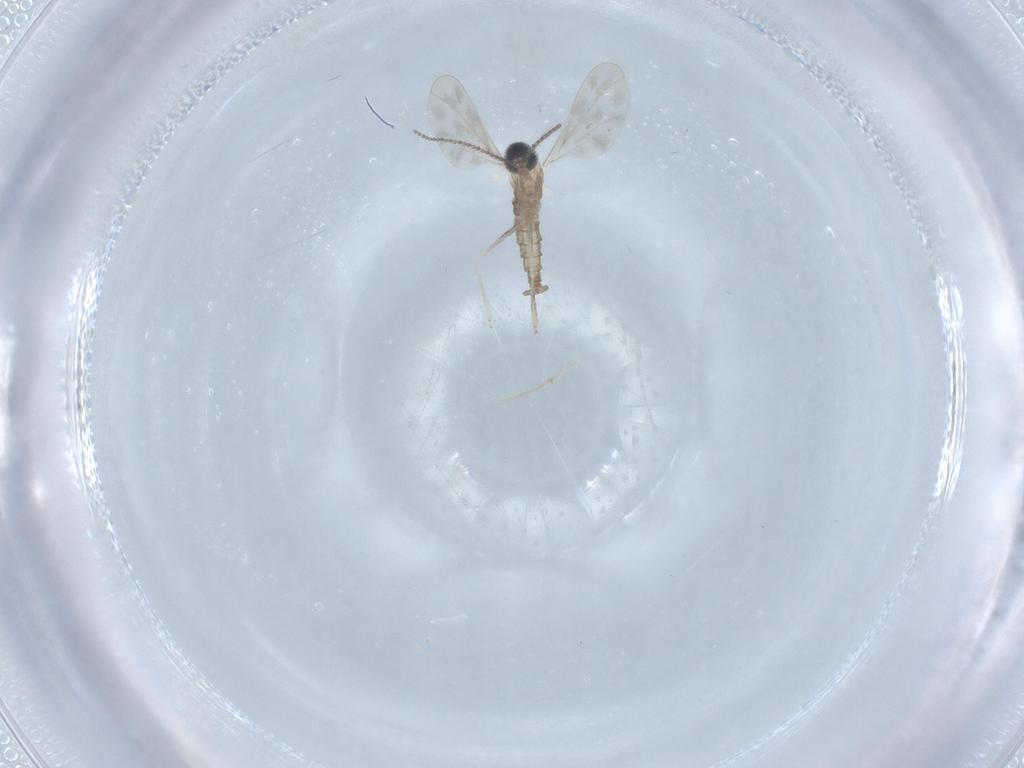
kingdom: Animalia
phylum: Arthropoda
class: Insecta
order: Diptera
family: Cecidomyiidae
